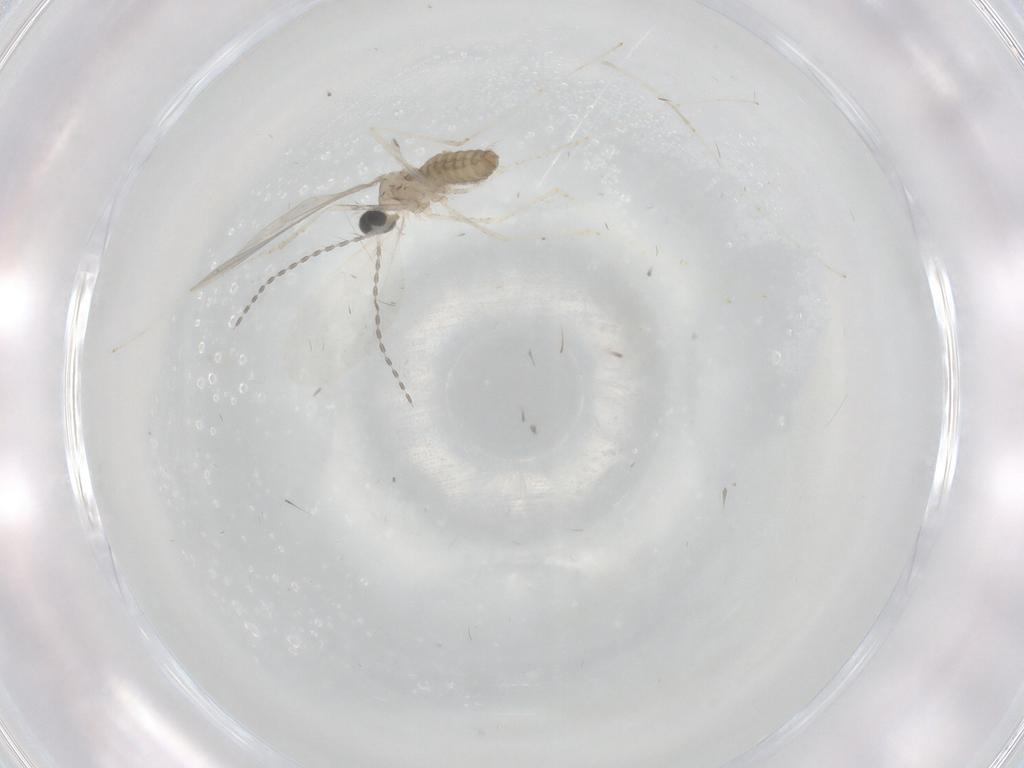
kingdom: Animalia
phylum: Arthropoda
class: Insecta
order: Diptera
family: Cecidomyiidae
